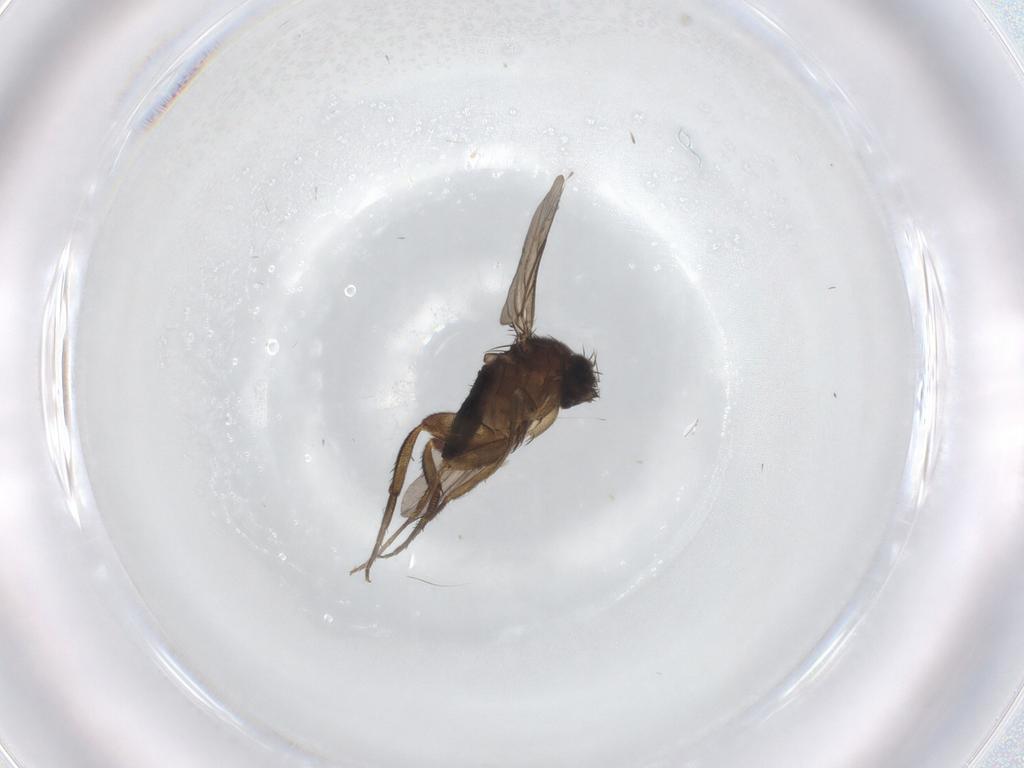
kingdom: Animalia
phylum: Arthropoda
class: Insecta
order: Diptera
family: Phoridae
